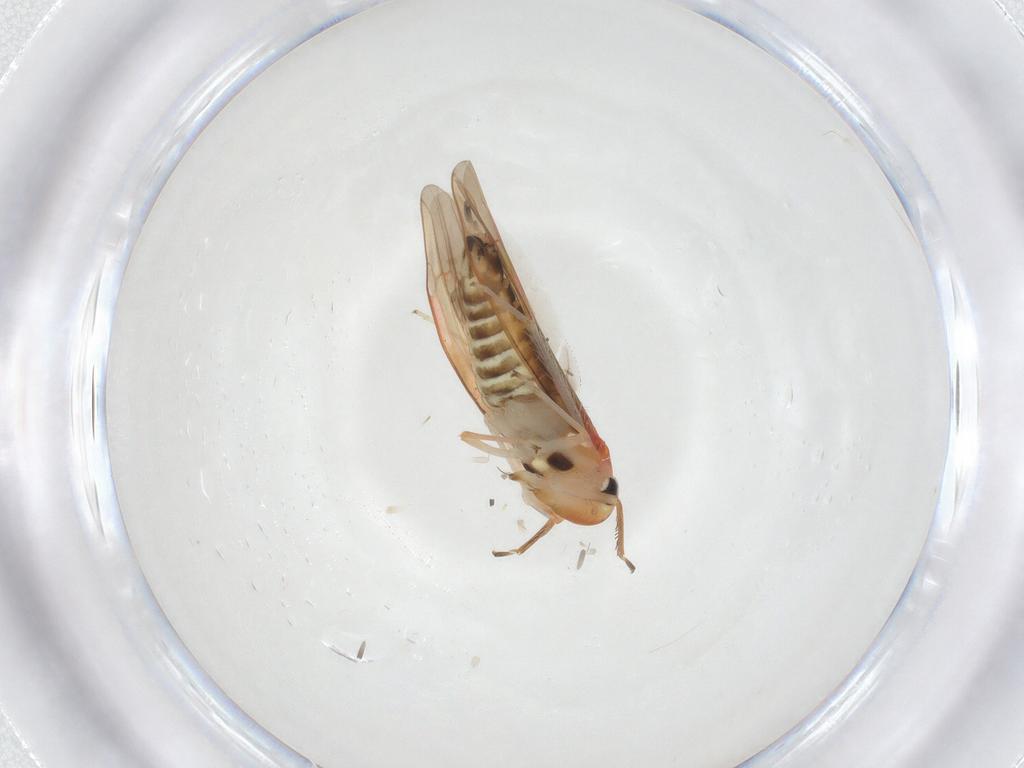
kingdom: Animalia
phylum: Arthropoda
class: Insecta
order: Hemiptera
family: Cicadellidae
